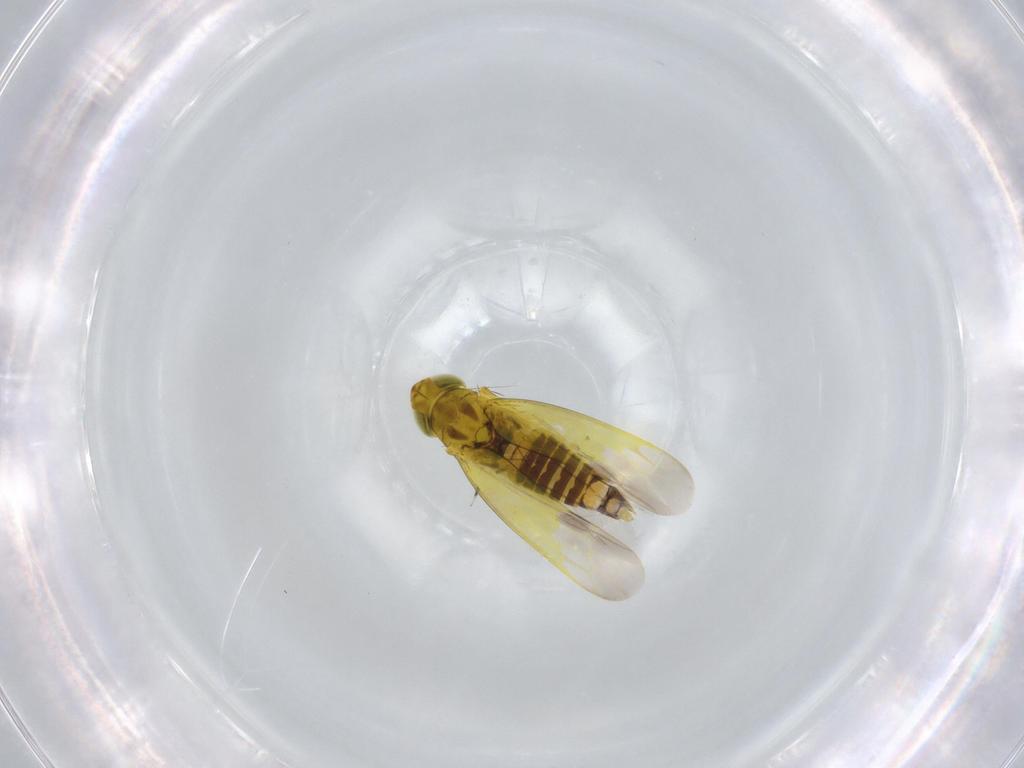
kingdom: Animalia
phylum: Arthropoda
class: Insecta
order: Hemiptera
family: Cicadellidae
